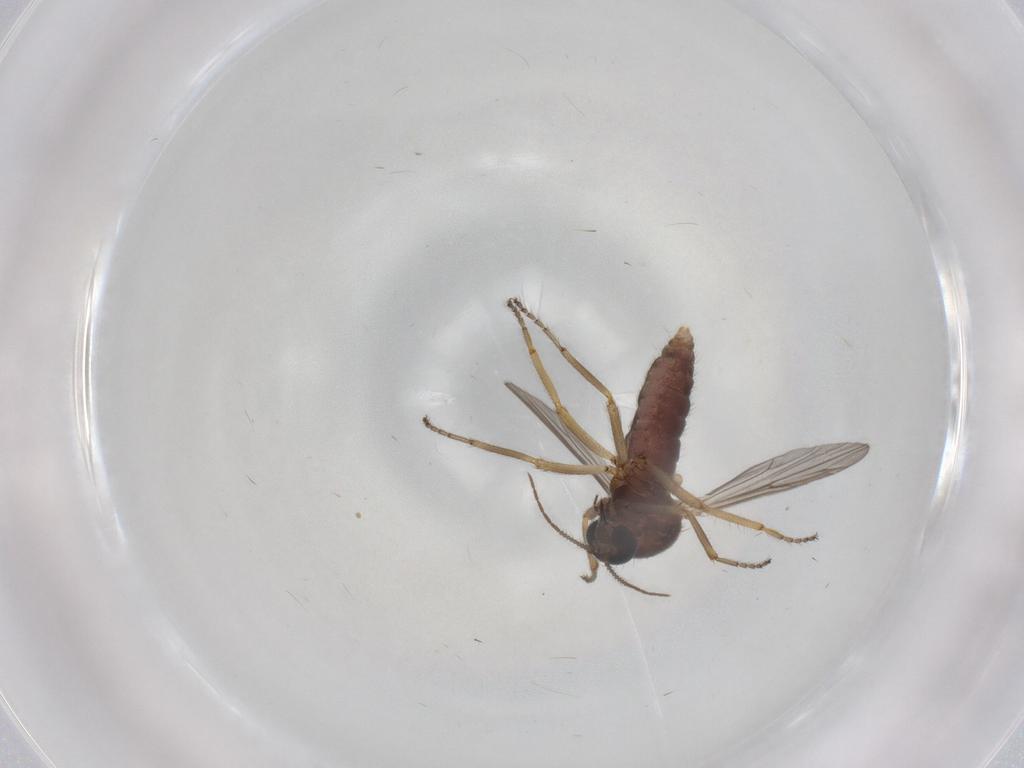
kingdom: Animalia
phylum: Arthropoda
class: Insecta
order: Diptera
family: Ceratopogonidae
